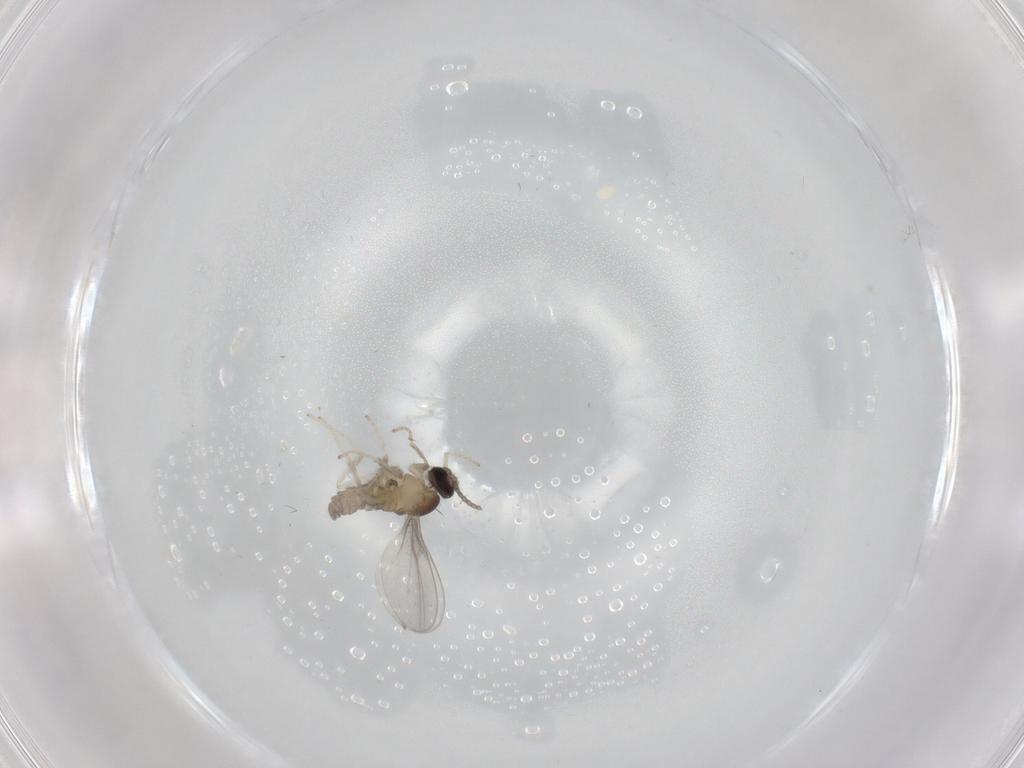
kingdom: Animalia
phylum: Arthropoda
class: Insecta
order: Diptera
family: Cecidomyiidae
